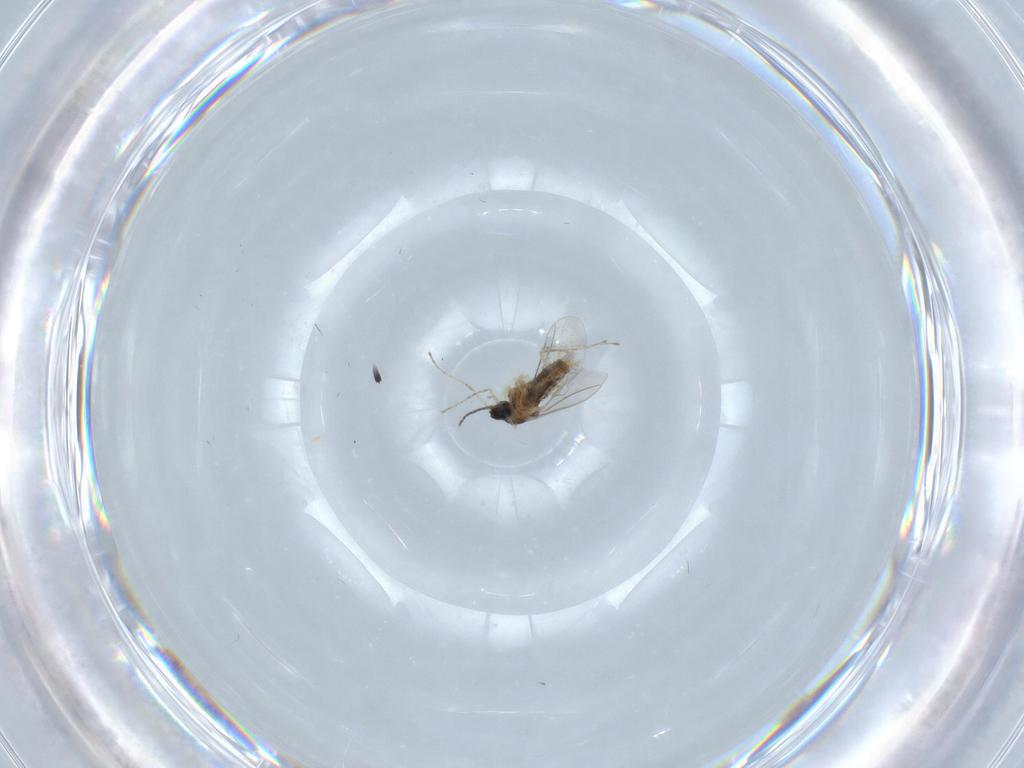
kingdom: Animalia
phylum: Arthropoda
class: Insecta
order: Diptera
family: Cecidomyiidae
